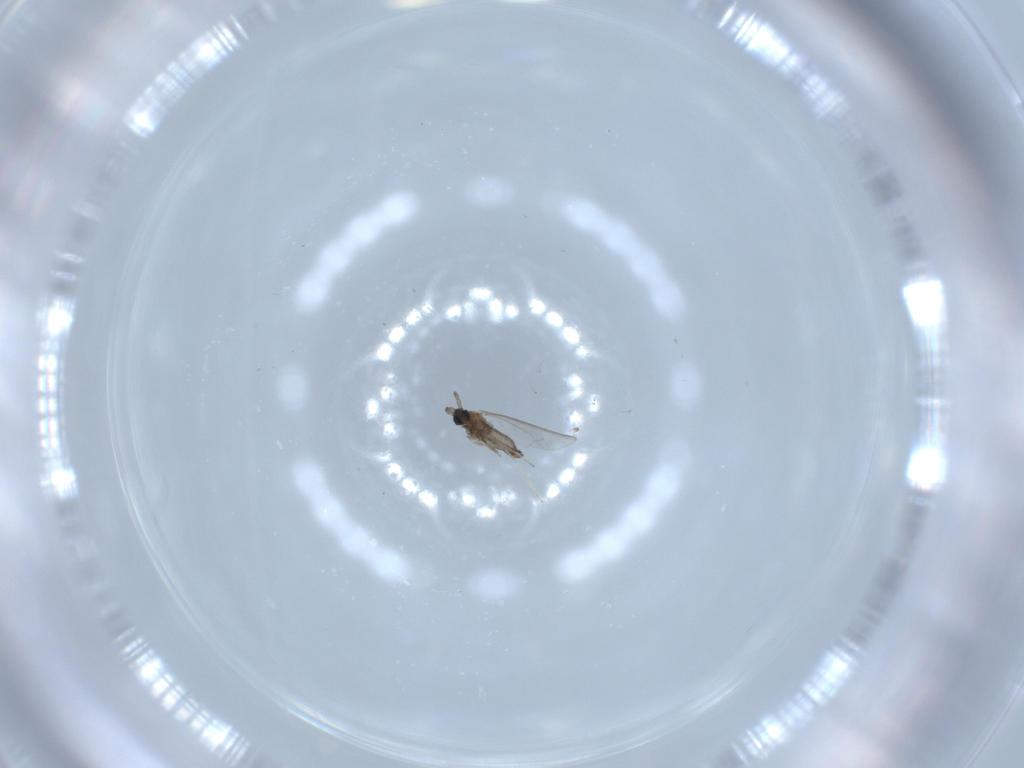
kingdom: Animalia
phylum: Arthropoda
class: Insecta
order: Diptera
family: Cecidomyiidae
